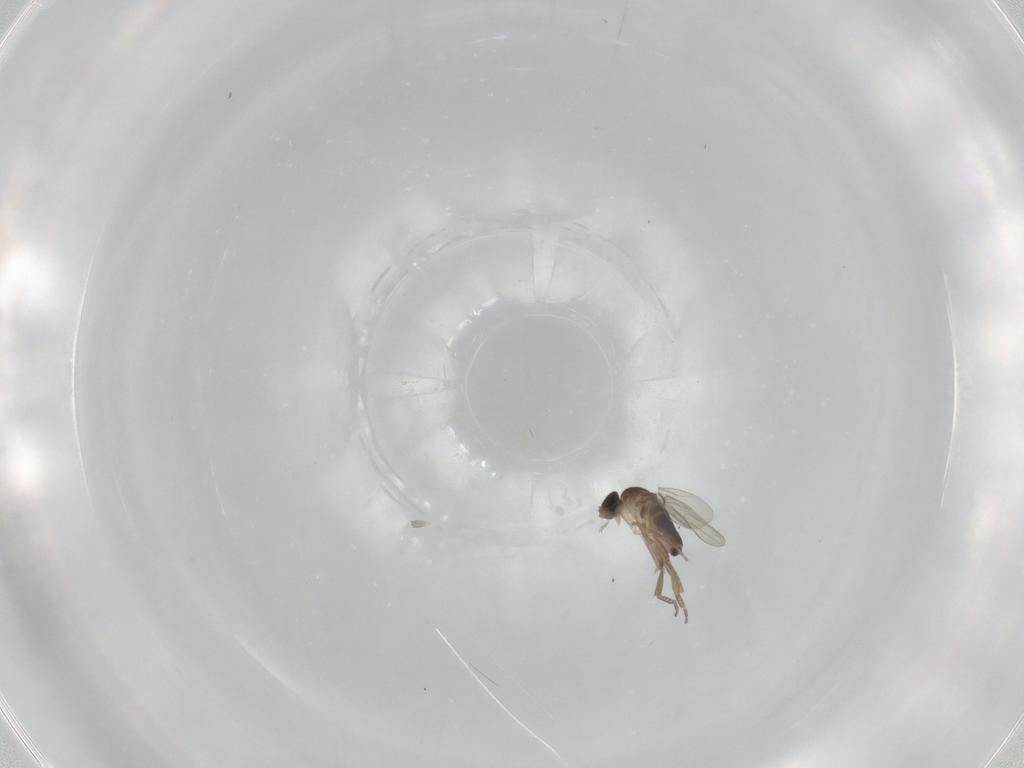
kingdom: Animalia
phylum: Arthropoda
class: Insecta
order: Diptera
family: Phoridae
